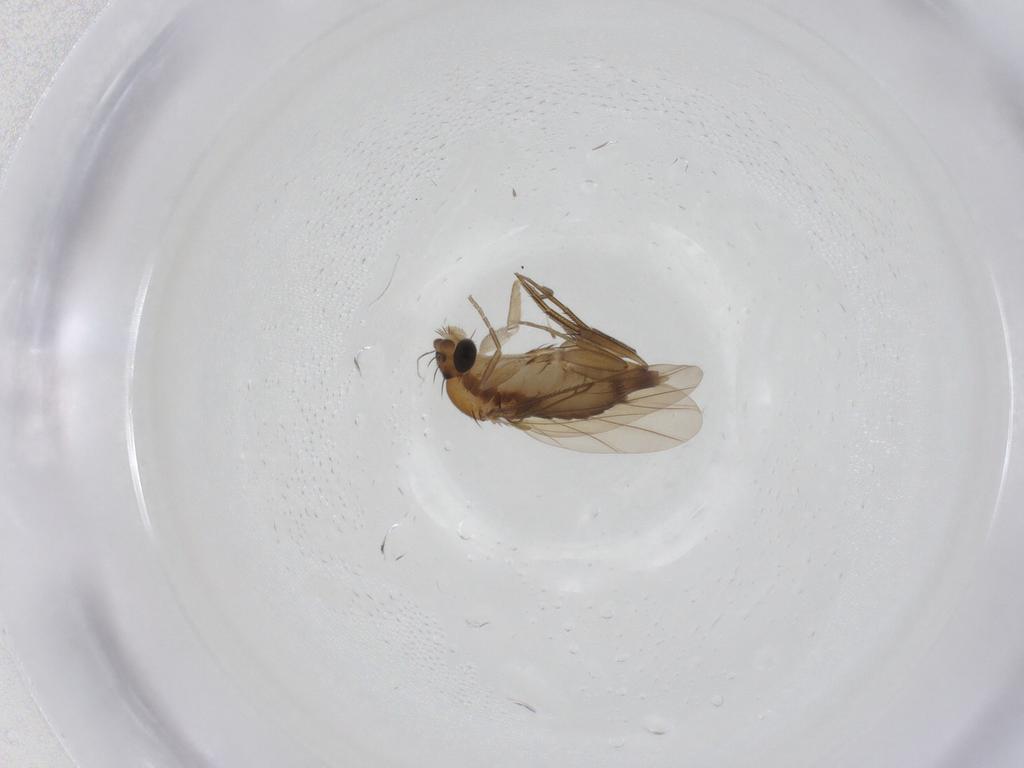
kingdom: Animalia
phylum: Arthropoda
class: Insecta
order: Diptera
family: Phoridae
